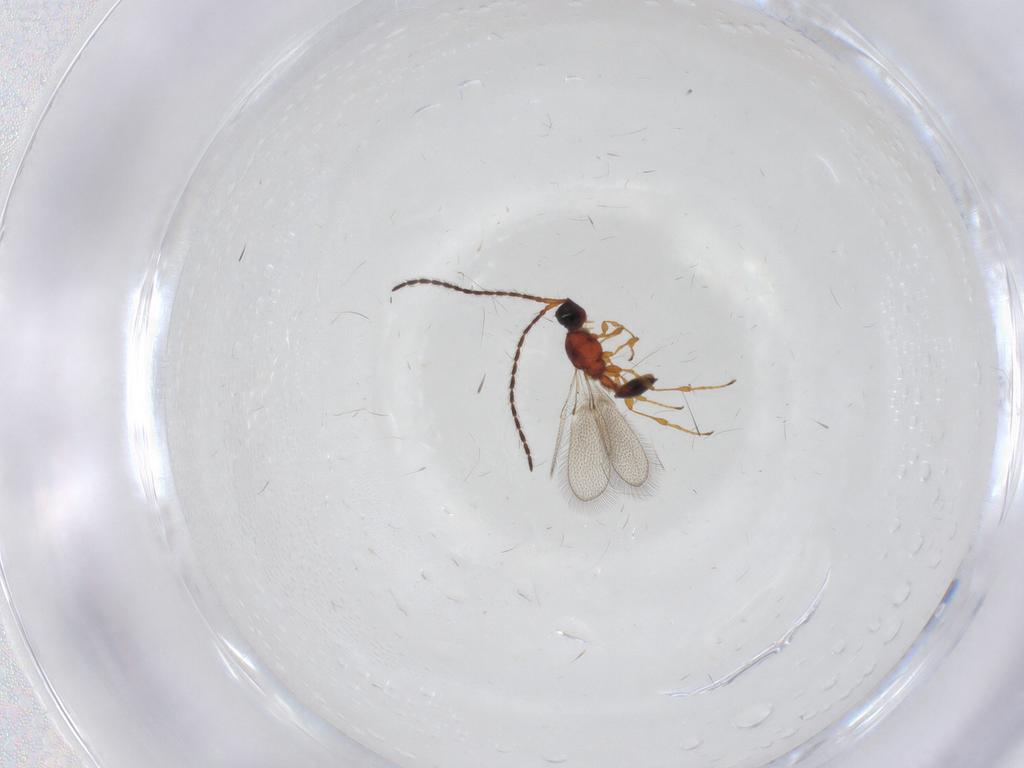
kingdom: Animalia
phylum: Arthropoda
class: Insecta
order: Hymenoptera
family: Diapriidae
